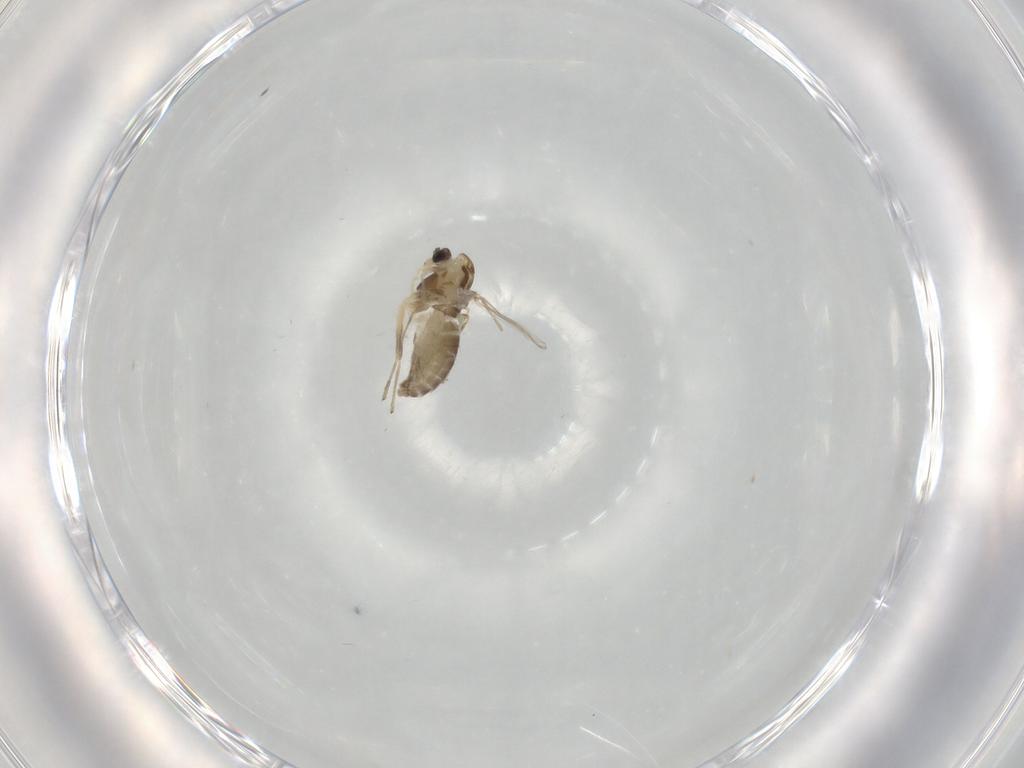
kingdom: Animalia
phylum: Arthropoda
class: Insecta
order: Diptera
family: Chironomidae
